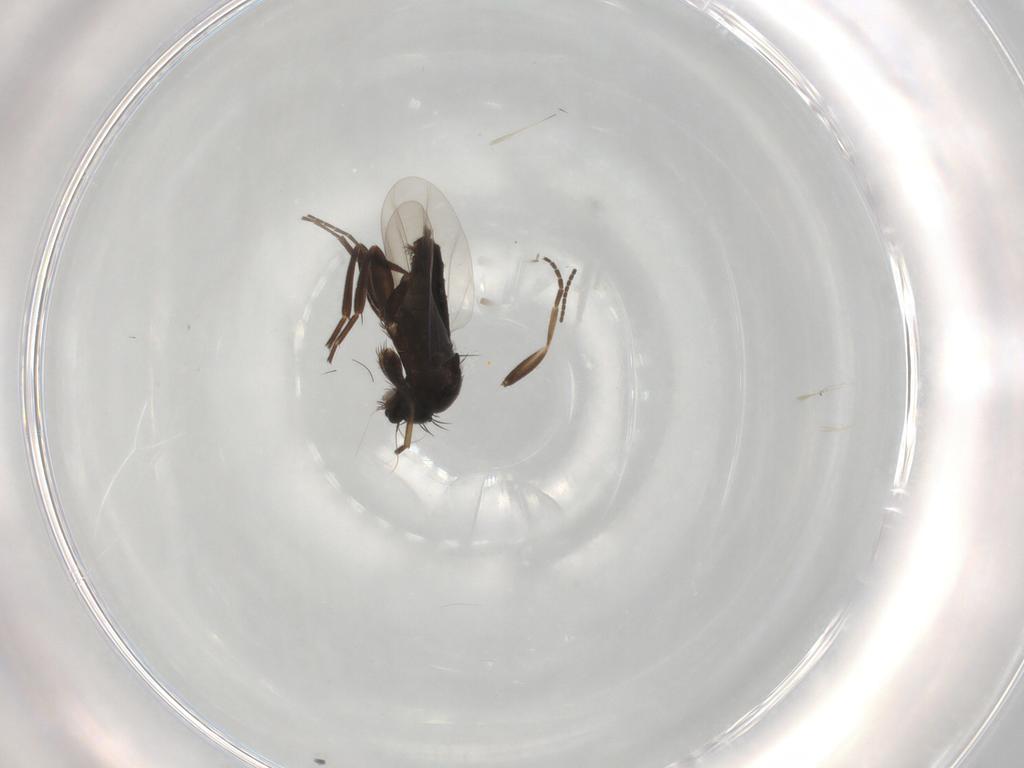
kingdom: Animalia
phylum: Arthropoda
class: Insecta
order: Diptera
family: Phoridae
